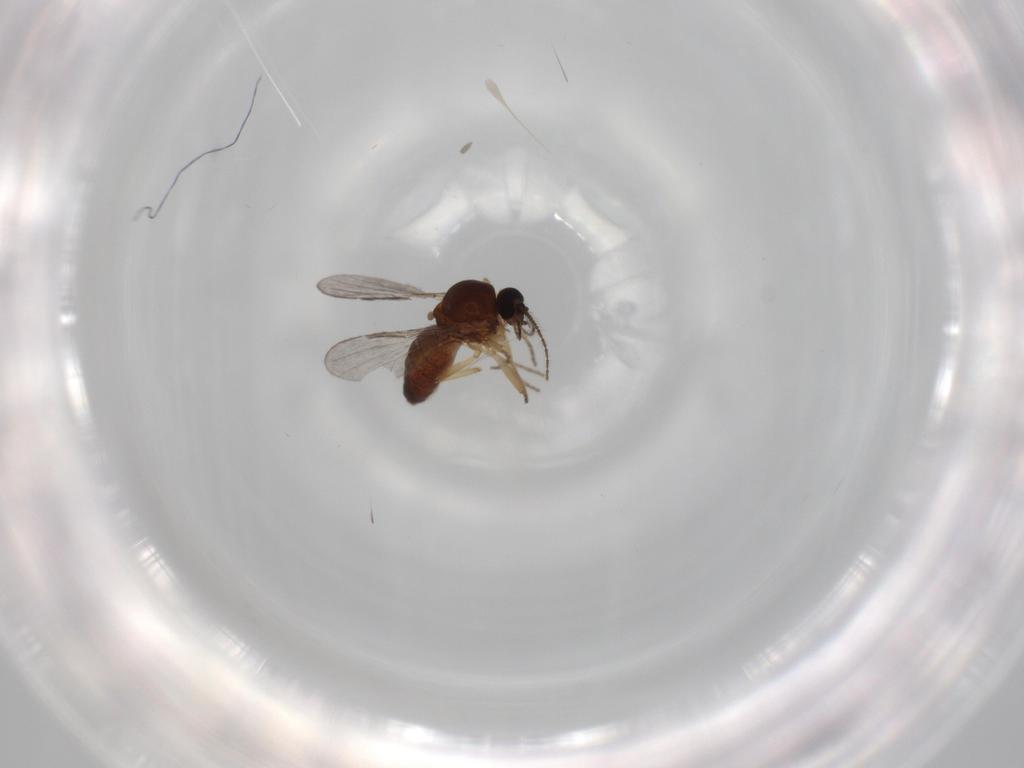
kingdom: Animalia
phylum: Arthropoda
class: Insecta
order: Diptera
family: Ceratopogonidae
